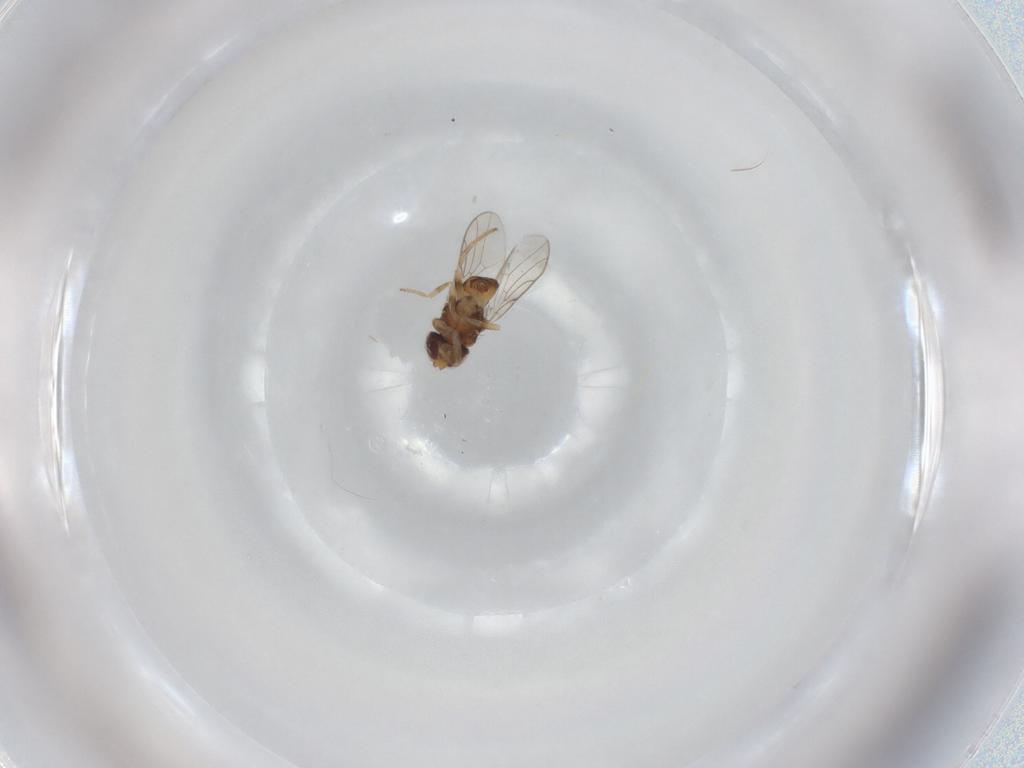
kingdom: Animalia
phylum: Arthropoda
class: Insecta
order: Diptera
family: Chloropidae
